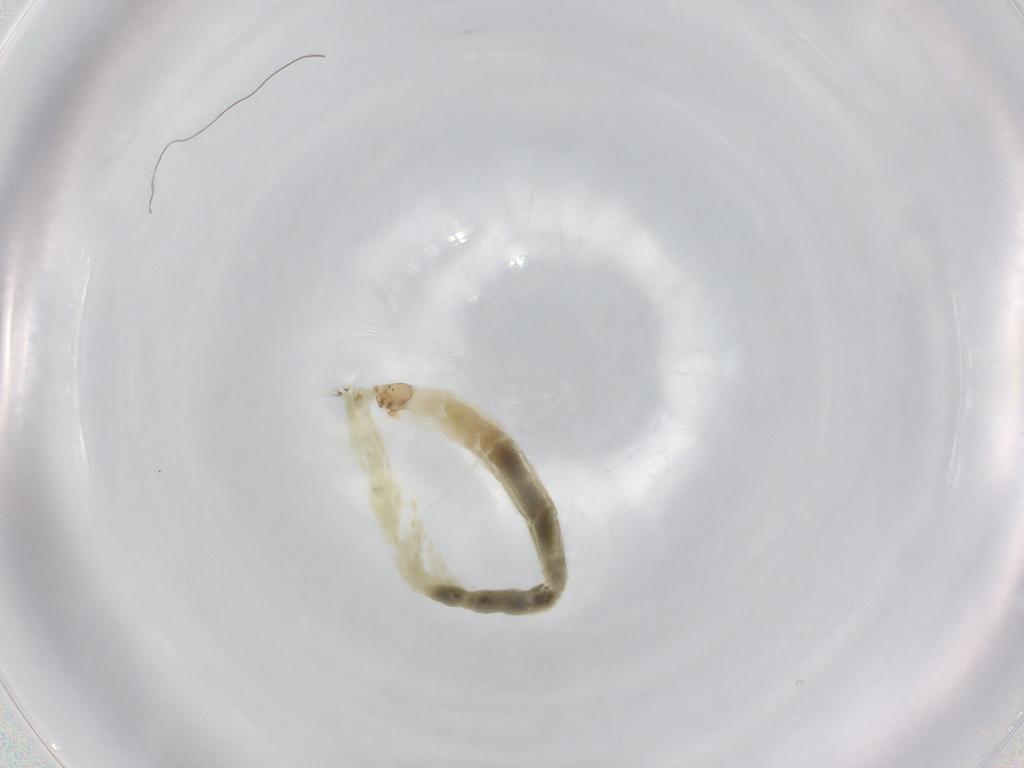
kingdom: Animalia
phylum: Arthropoda
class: Insecta
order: Diptera
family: Chironomidae
